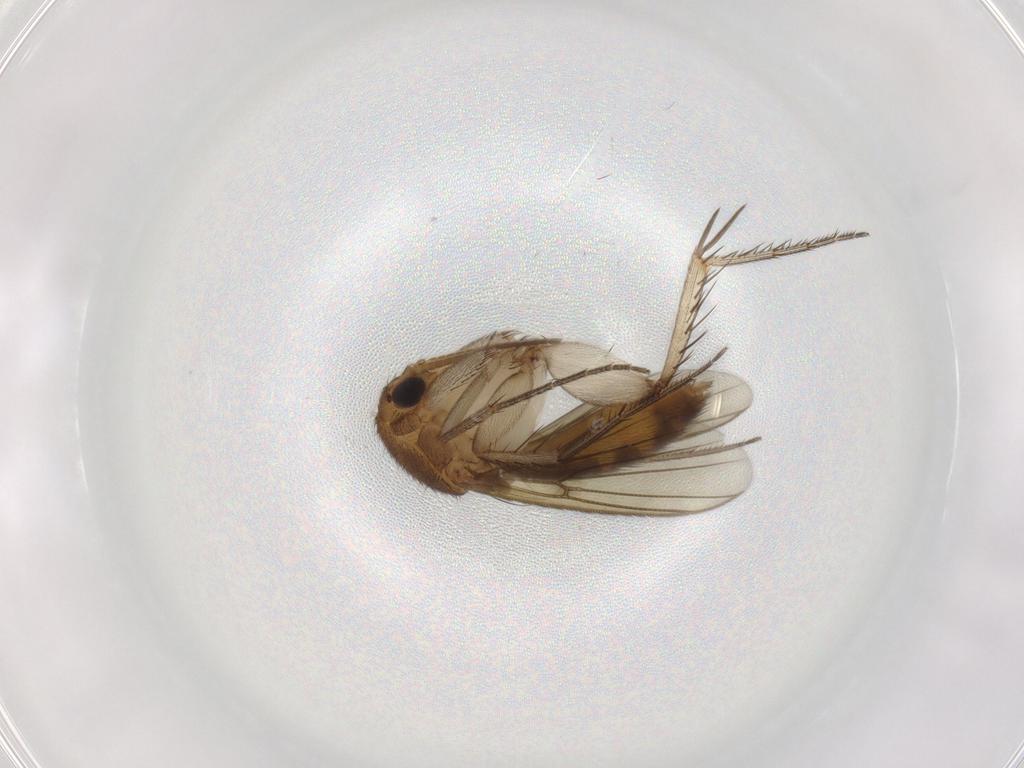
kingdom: Animalia
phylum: Arthropoda
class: Insecta
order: Diptera
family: Mycetophilidae
